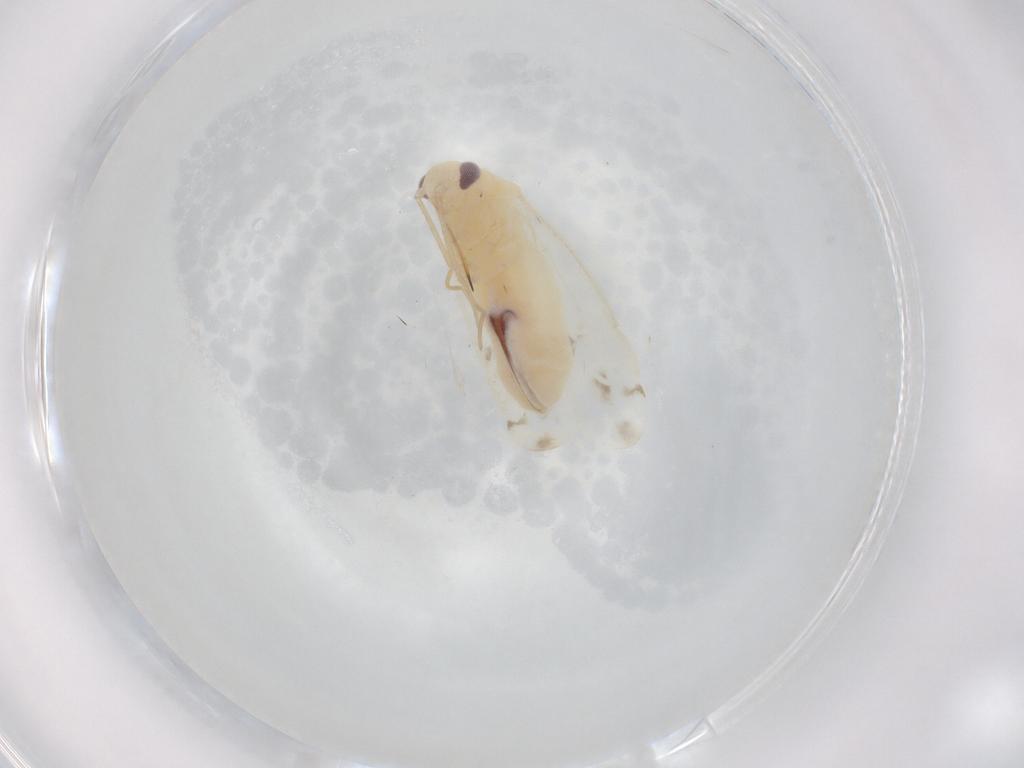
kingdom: Animalia
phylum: Arthropoda
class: Insecta
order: Hemiptera
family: Miridae
